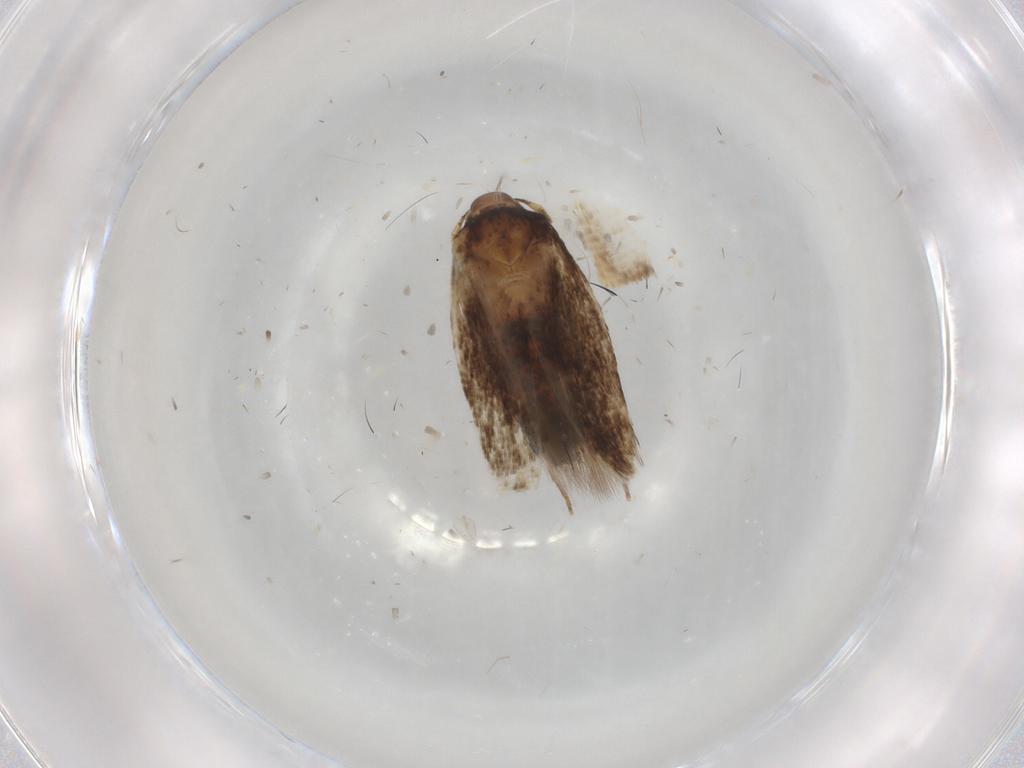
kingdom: Animalia
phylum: Arthropoda
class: Insecta
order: Lepidoptera
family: Cosmopterigidae
